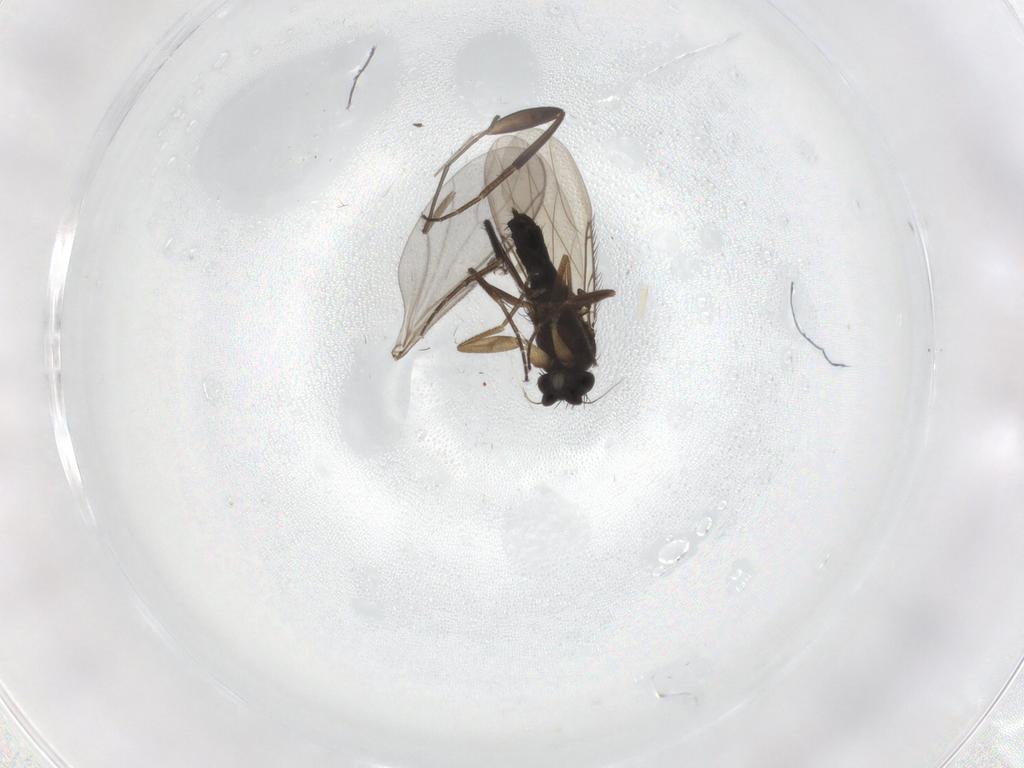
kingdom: Animalia
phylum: Arthropoda
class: Insecta
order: Diptera
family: Phoridae
